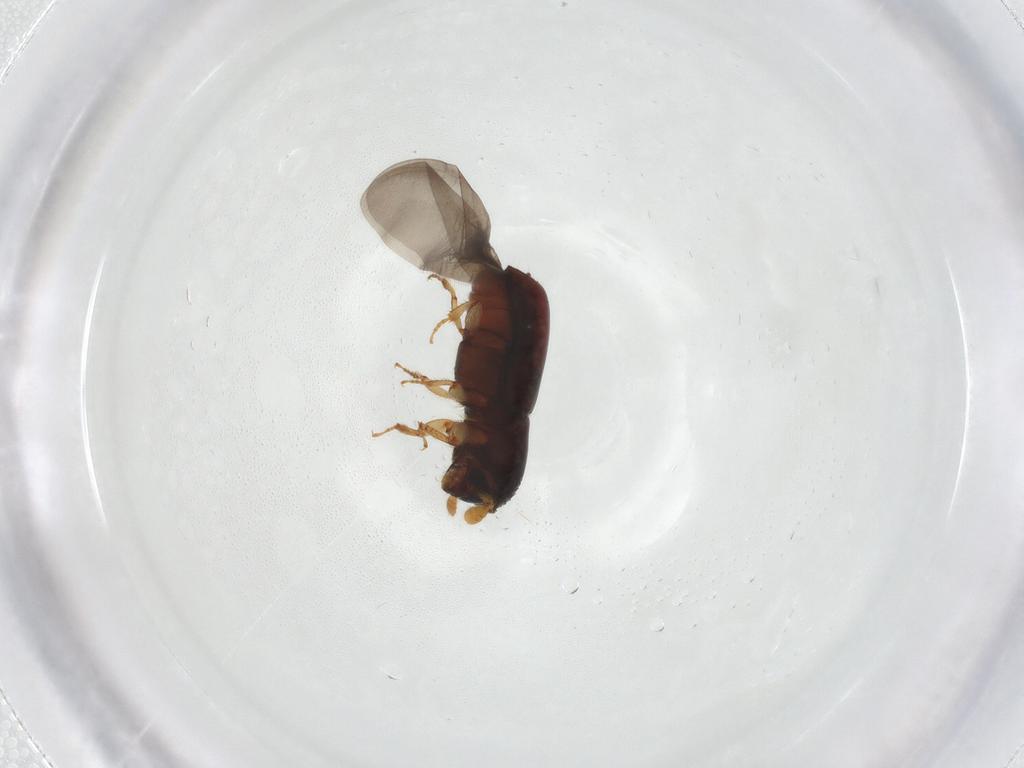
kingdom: Animalia
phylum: Arthropoda
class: Insecta
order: Coleoptera
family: Curculionidae
